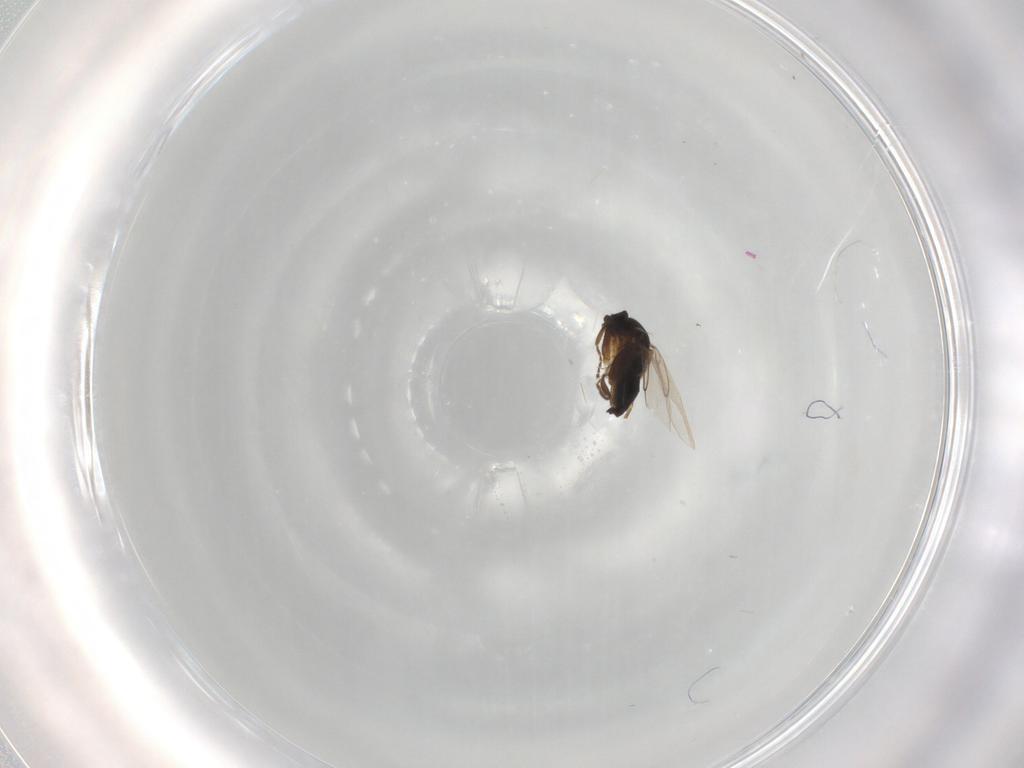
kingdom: Animalia
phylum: Arthropoda
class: Insecta
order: Diptera
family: Phoridae
